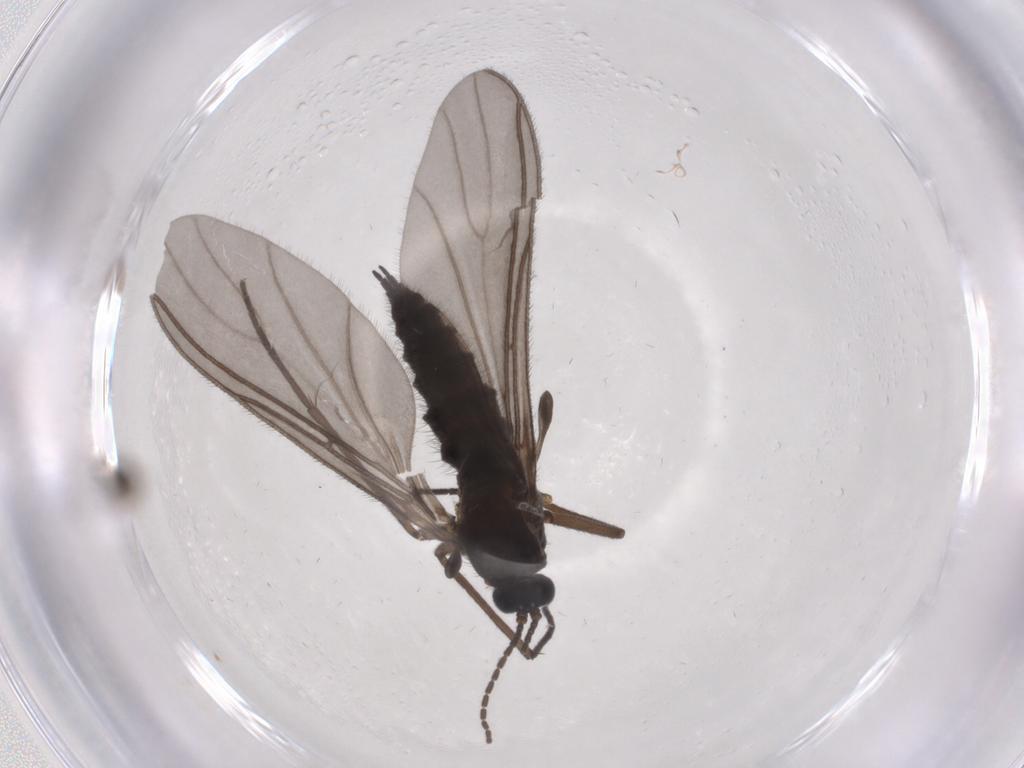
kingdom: Animalia
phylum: Arthropoda
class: Insecta
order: Diptera
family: Sciaridae
